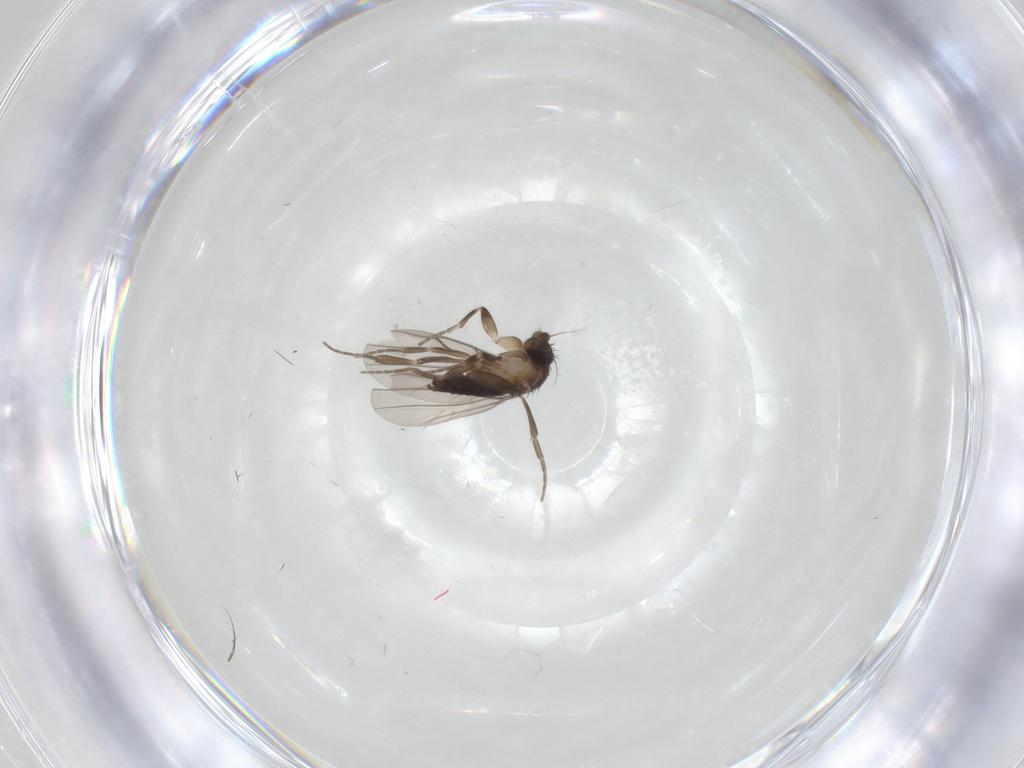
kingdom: Animalia
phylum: Arthropoda
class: Insecta
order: Diptera
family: Phoridae
